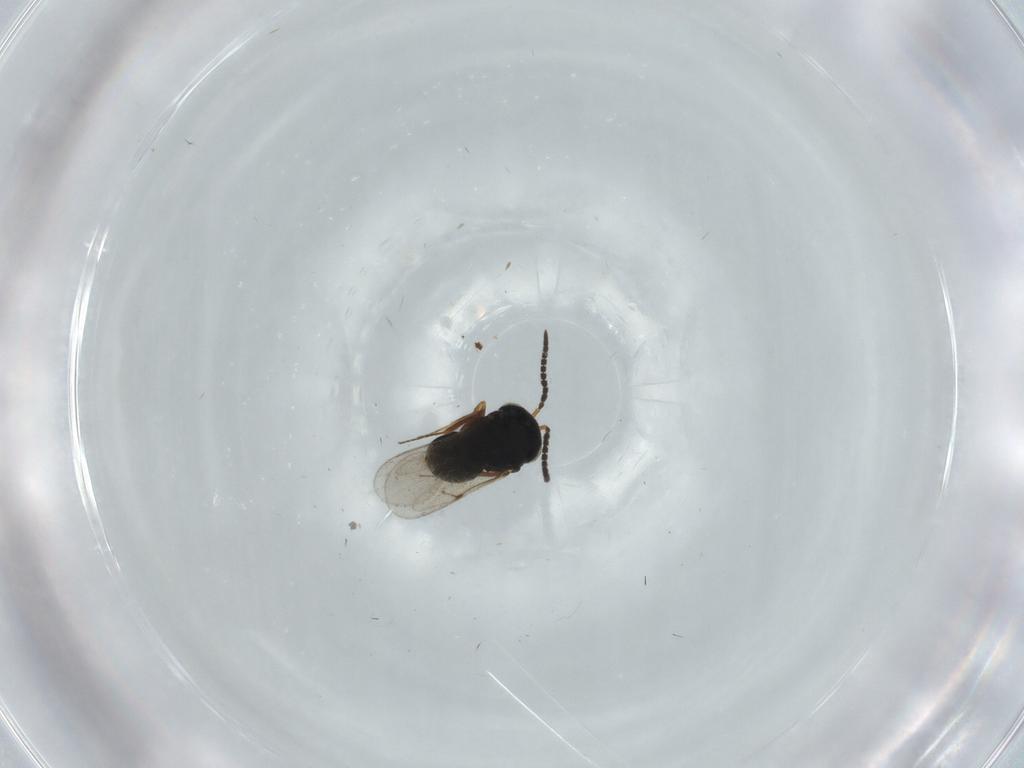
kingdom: Animalia
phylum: Arthropoda
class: Insecta
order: Hymenoptera
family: Scelionidae
